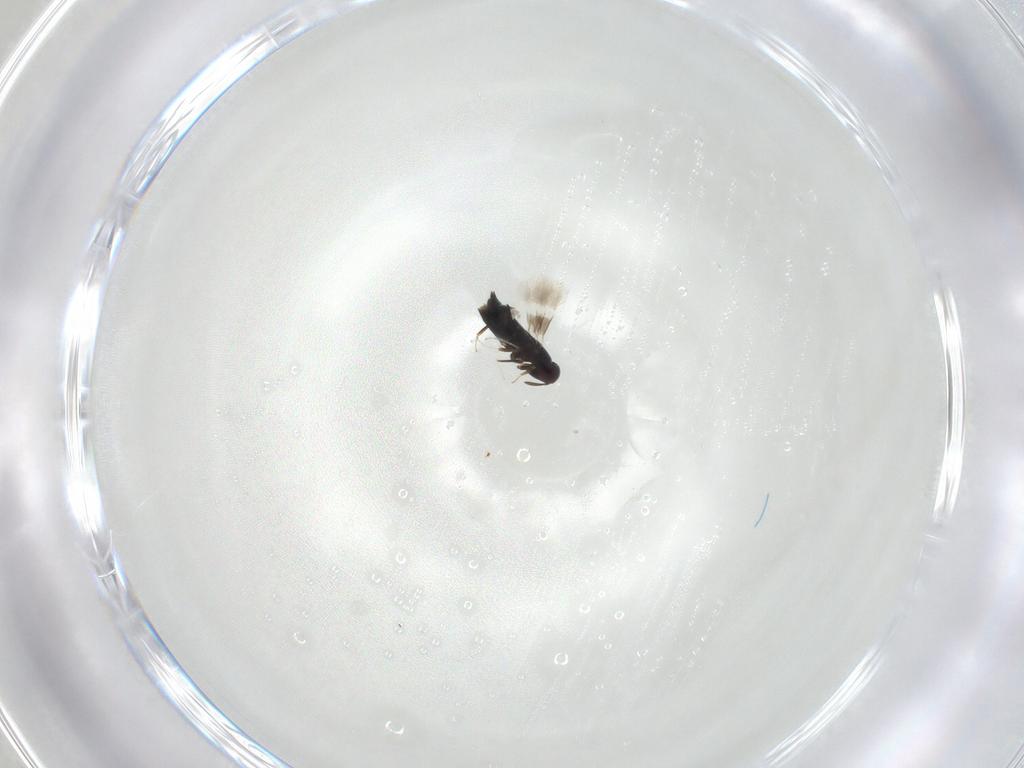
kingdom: Animalia
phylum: Arthropoda
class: Insecta
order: Hymenoptera
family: Signiphoridae
